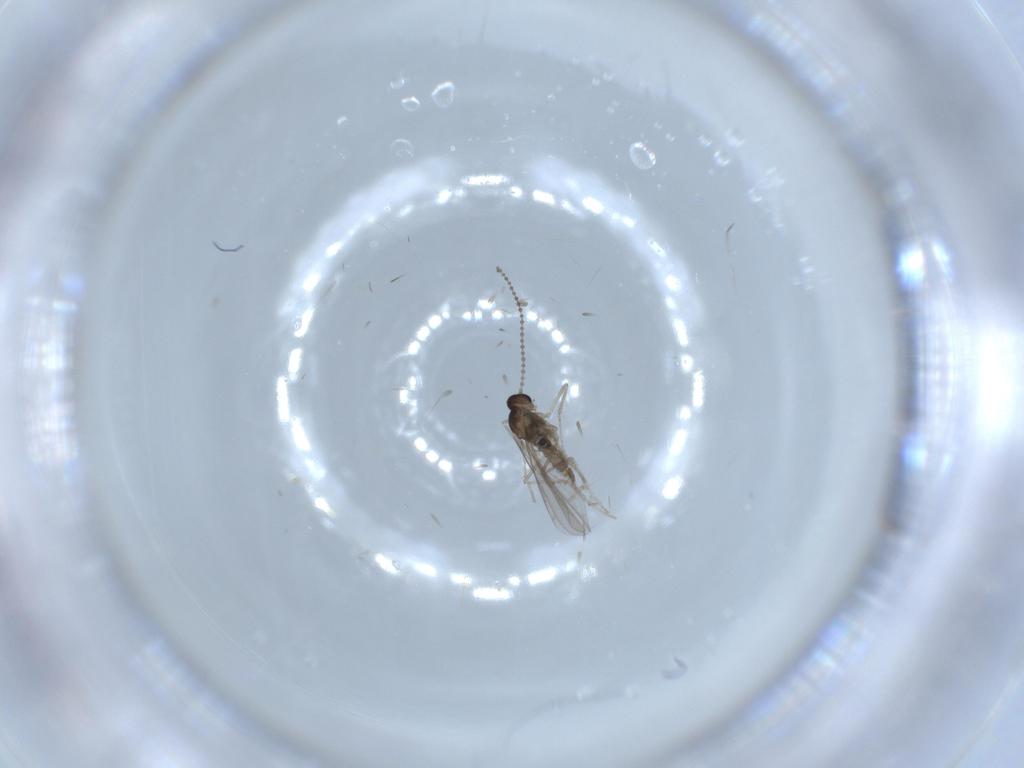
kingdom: Animalia
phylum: Arthropoda
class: Insecta
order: Diptera
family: Cecidomyiidae
